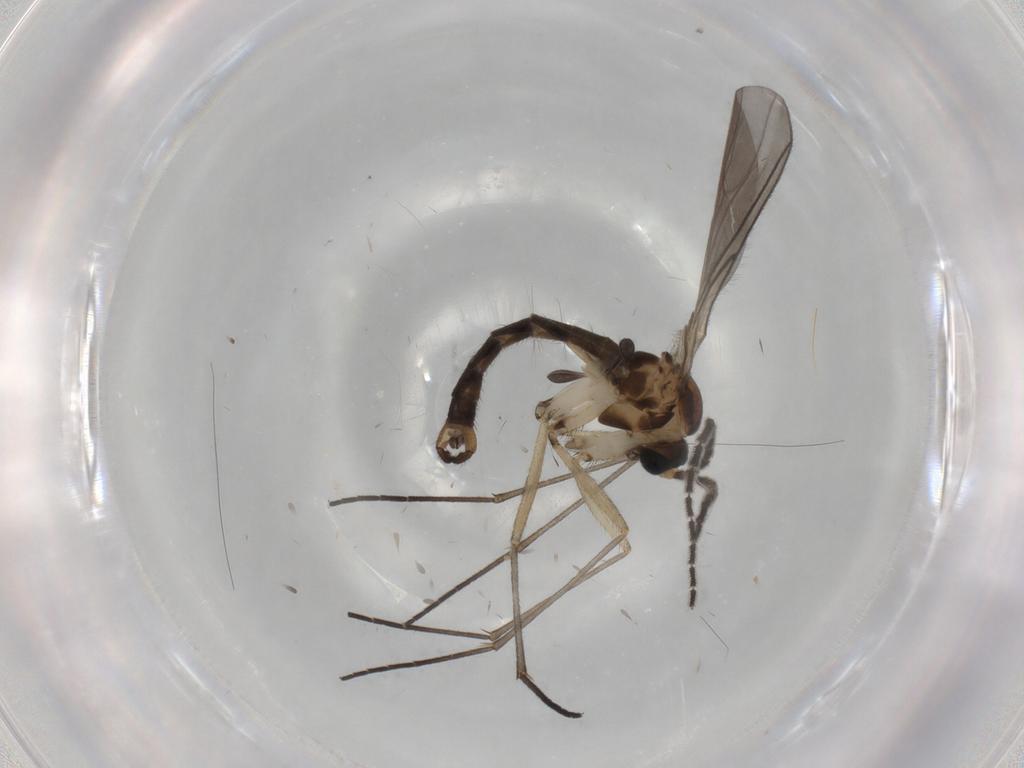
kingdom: Animalia
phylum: Arthropoda
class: Insecta
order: Diptera
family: Sciaridae
